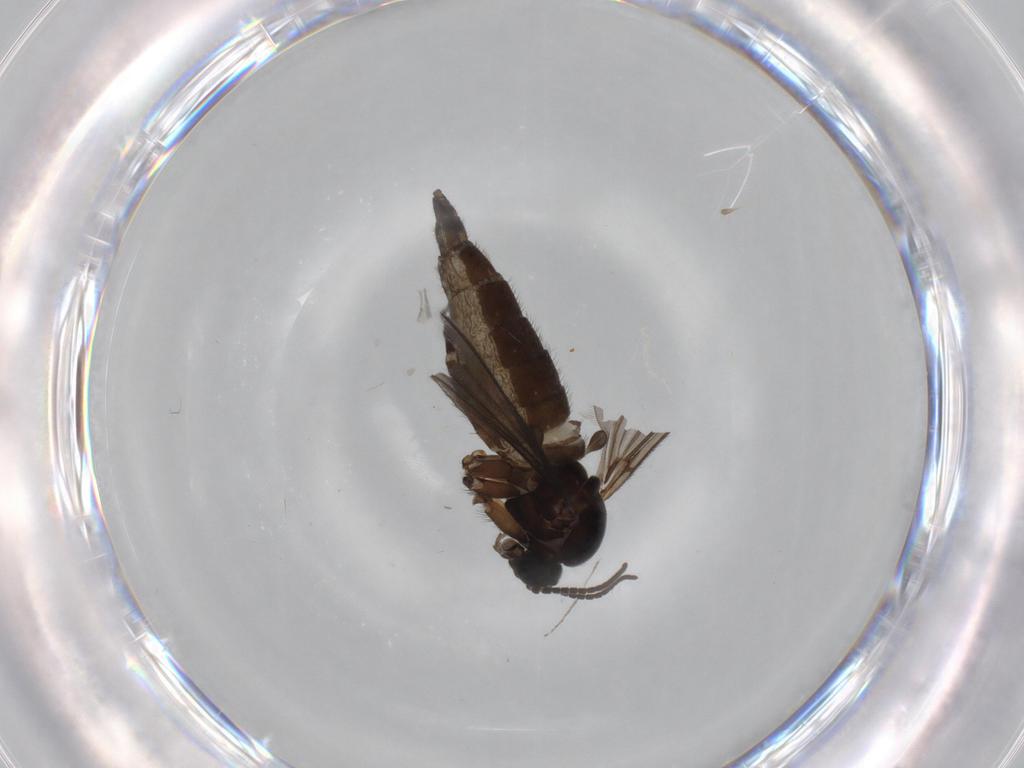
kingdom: Animalia
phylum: Arthropoda
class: Insecta
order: Diptera
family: Sciaridae
